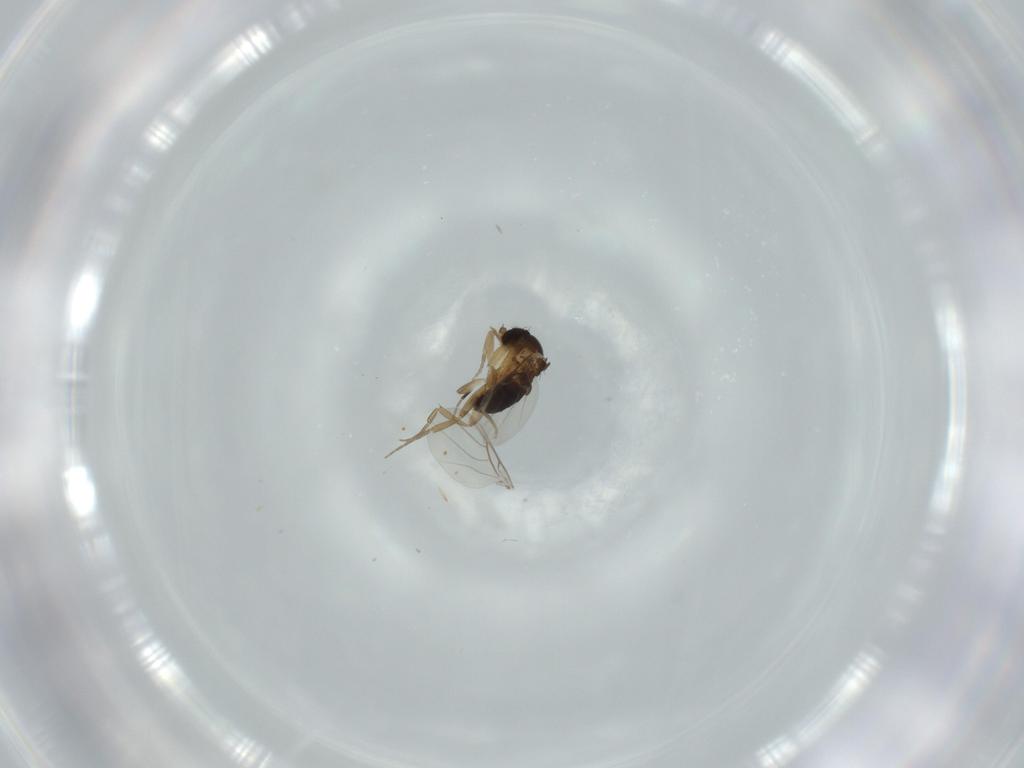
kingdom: Animalia
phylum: Arthropoda
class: Insecta
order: Diptera
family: Phoridae
